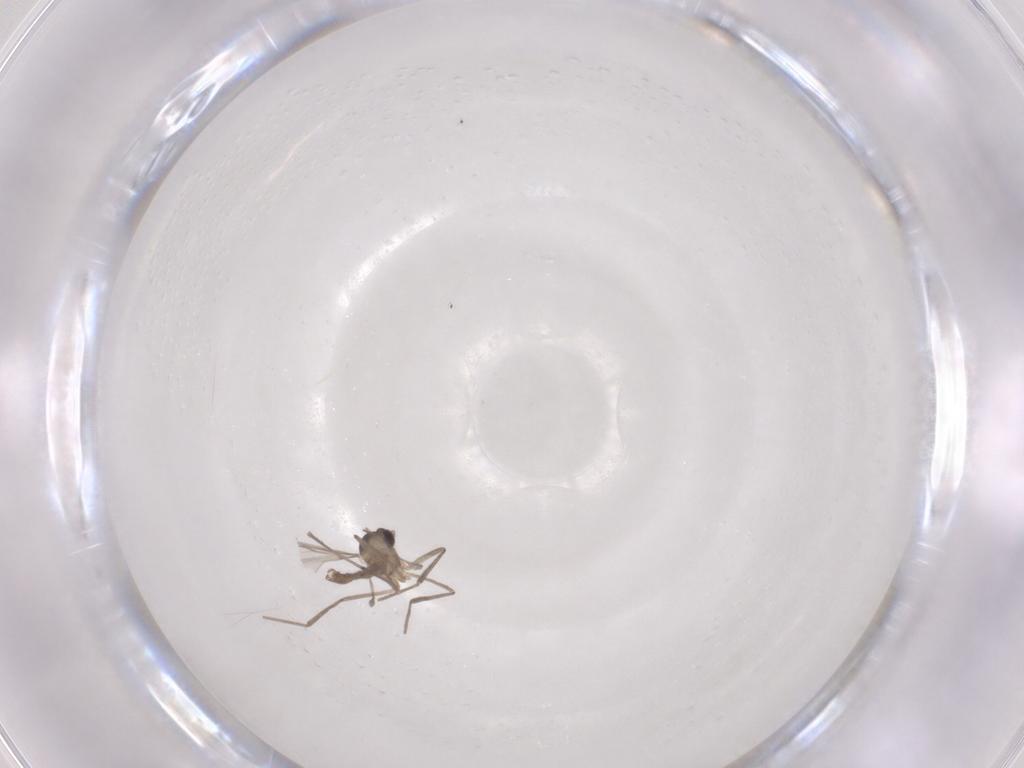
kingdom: Animalia
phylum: Arthropoda
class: Insecta
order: Diptera
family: Cecidomyiidae
